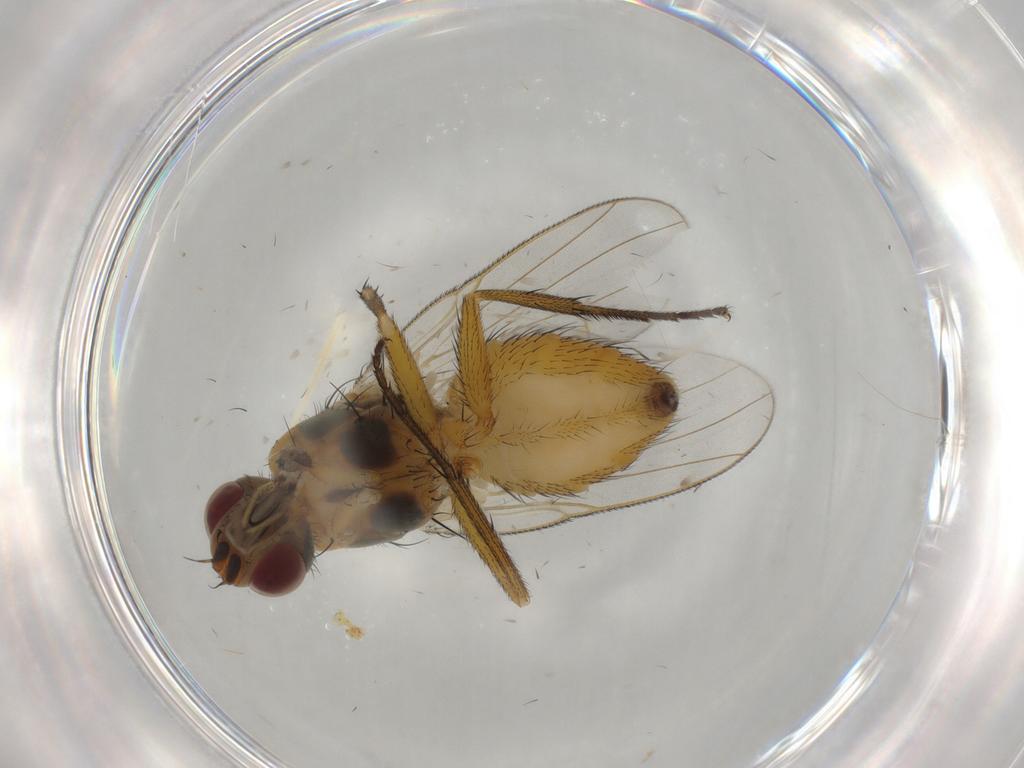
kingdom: Animalia
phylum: Arthropoda
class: Insecta
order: Diptera
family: Muscidae
